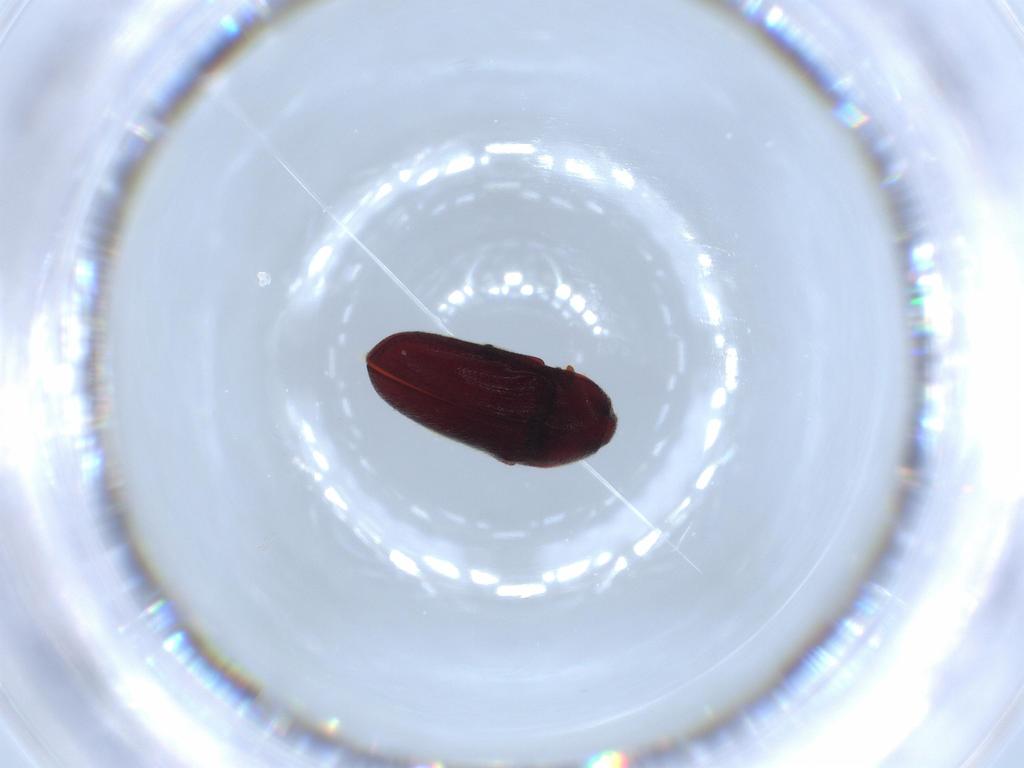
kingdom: Animalia
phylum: Arthropoda
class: Insecta
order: Coleoptera
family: Throscidae
